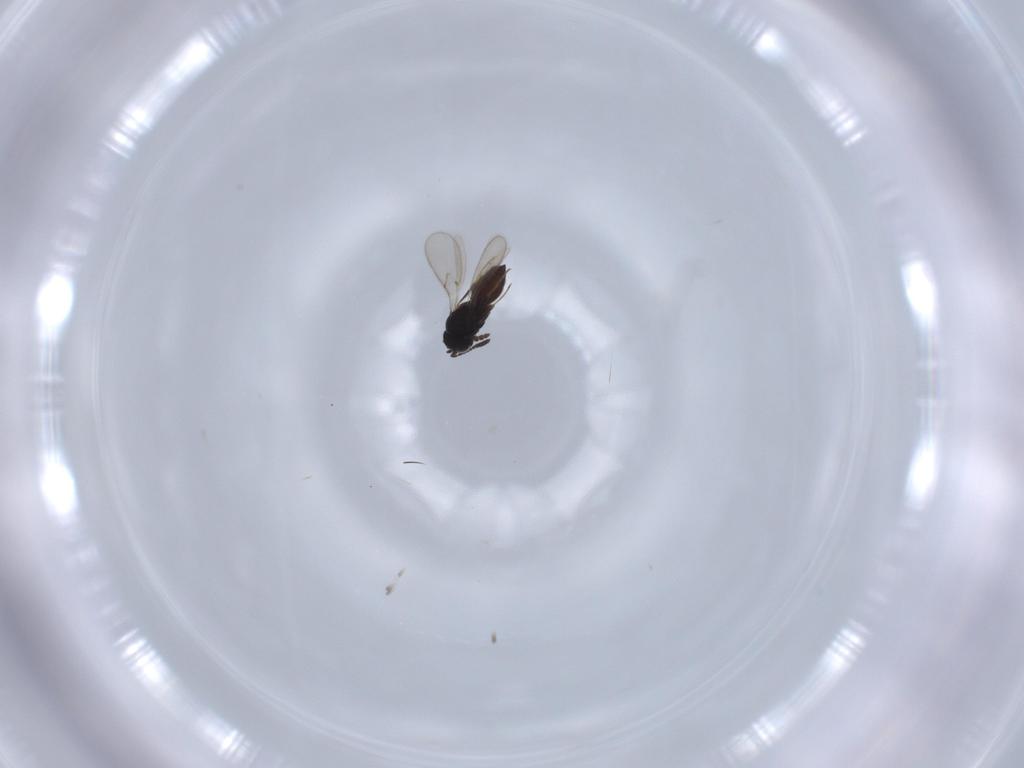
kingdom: Animalia
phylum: Arthropoda
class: Insecta
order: Hymenoptera
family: Scelionidae
